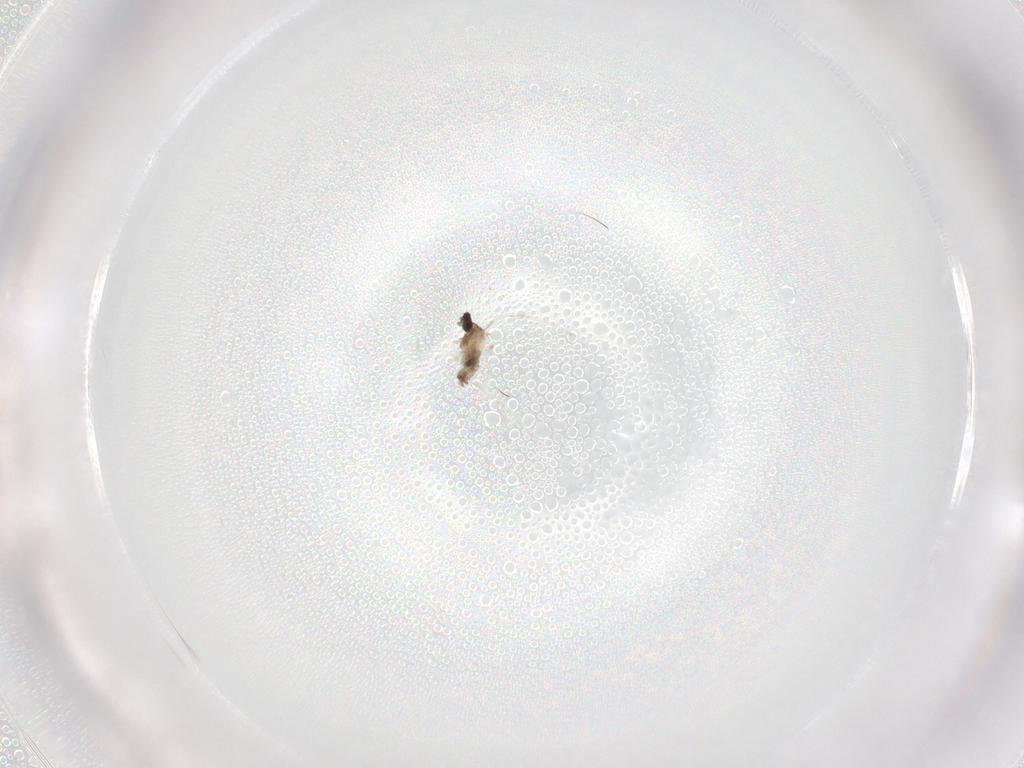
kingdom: Animalia
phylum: Arthropoda
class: Insecta
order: Diptera
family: Cecidomyiidae
